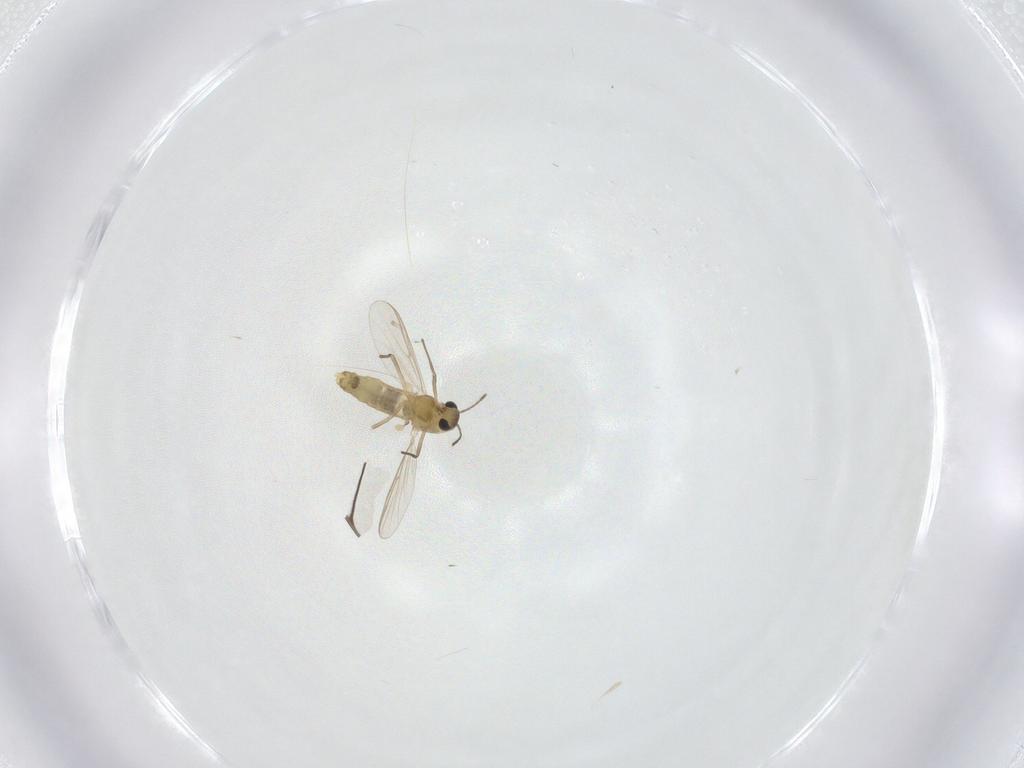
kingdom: Animalia
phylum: Arthropoda
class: Insecta
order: Diptera
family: Chironomidae
